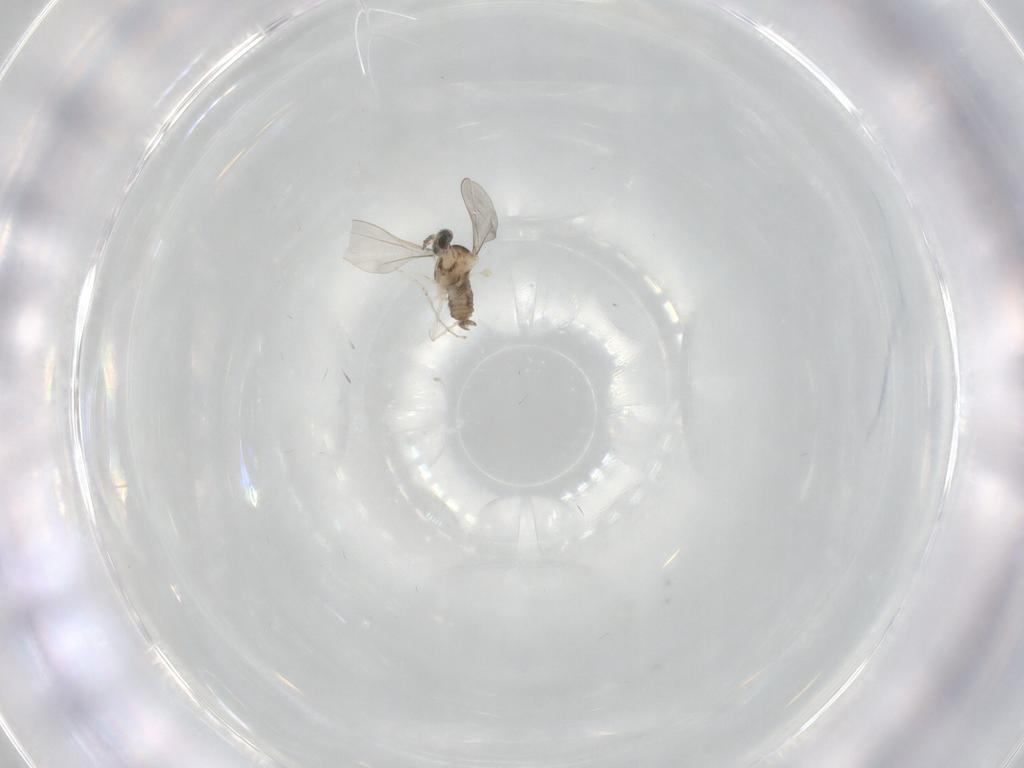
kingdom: Animalia
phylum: Arthropoda
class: Insecta
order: Diptera
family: Cecidomyiidae
